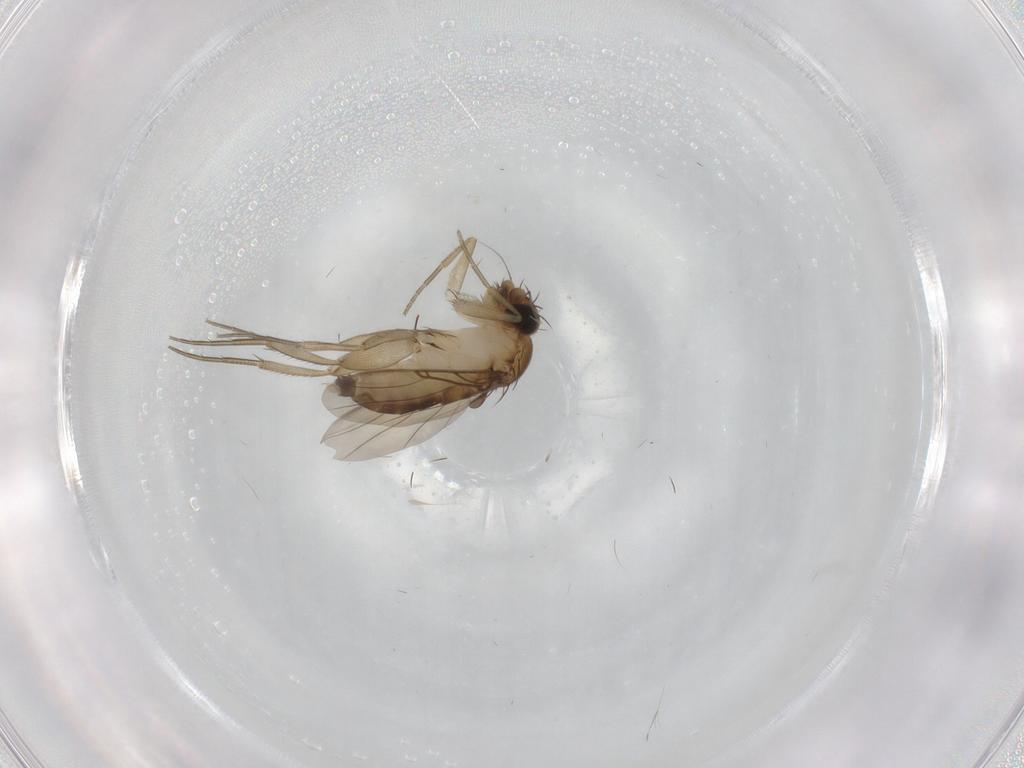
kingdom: Animalia
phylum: Arthropoda
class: Insecta
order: Diptera
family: Phoridae
